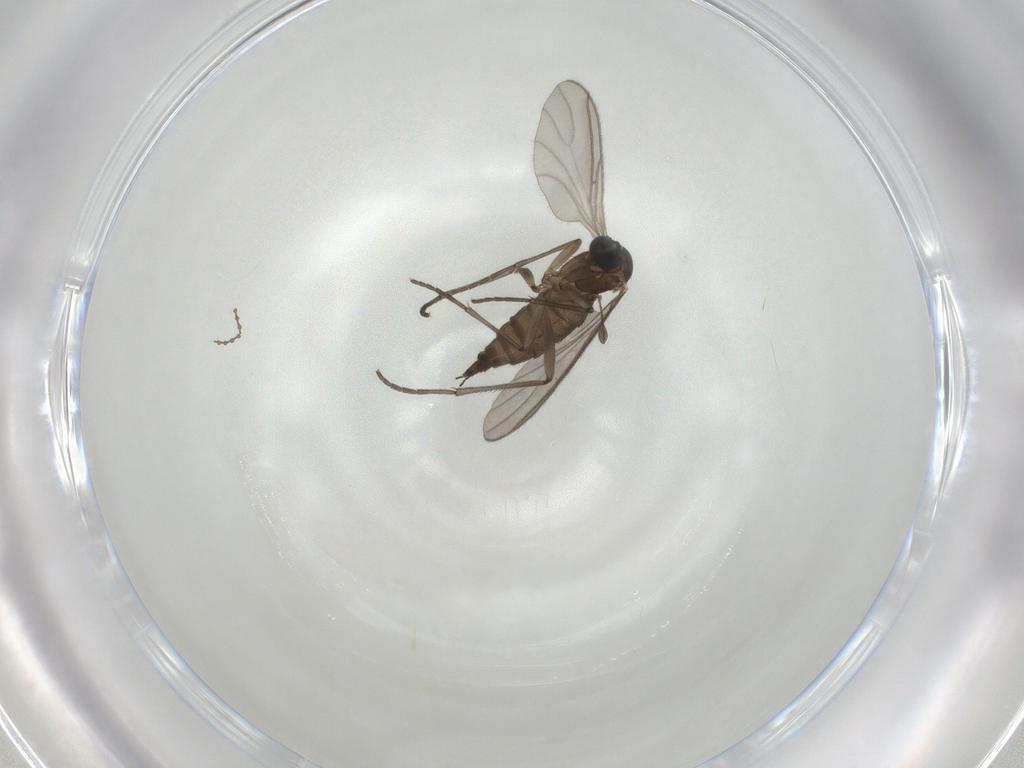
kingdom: Animalia
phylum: Arthropoda
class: Insecta
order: Diptera
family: Sciaridae
